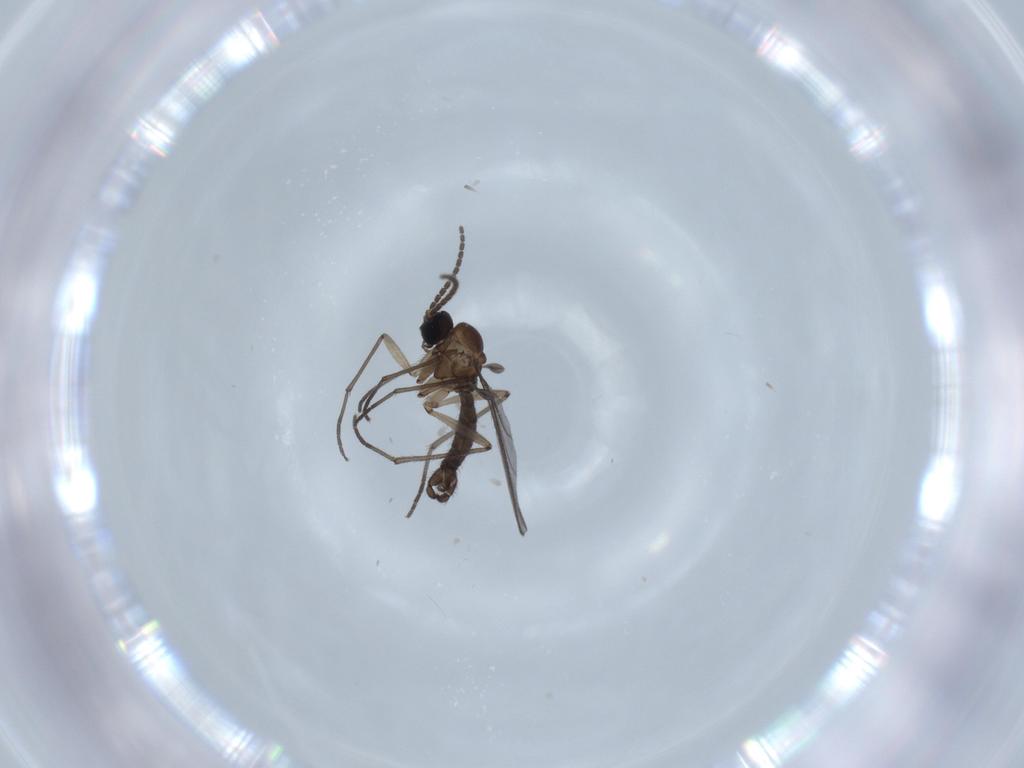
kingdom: Animalia
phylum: Arthropoda
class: Insecta
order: Diptera
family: Sciaridae
